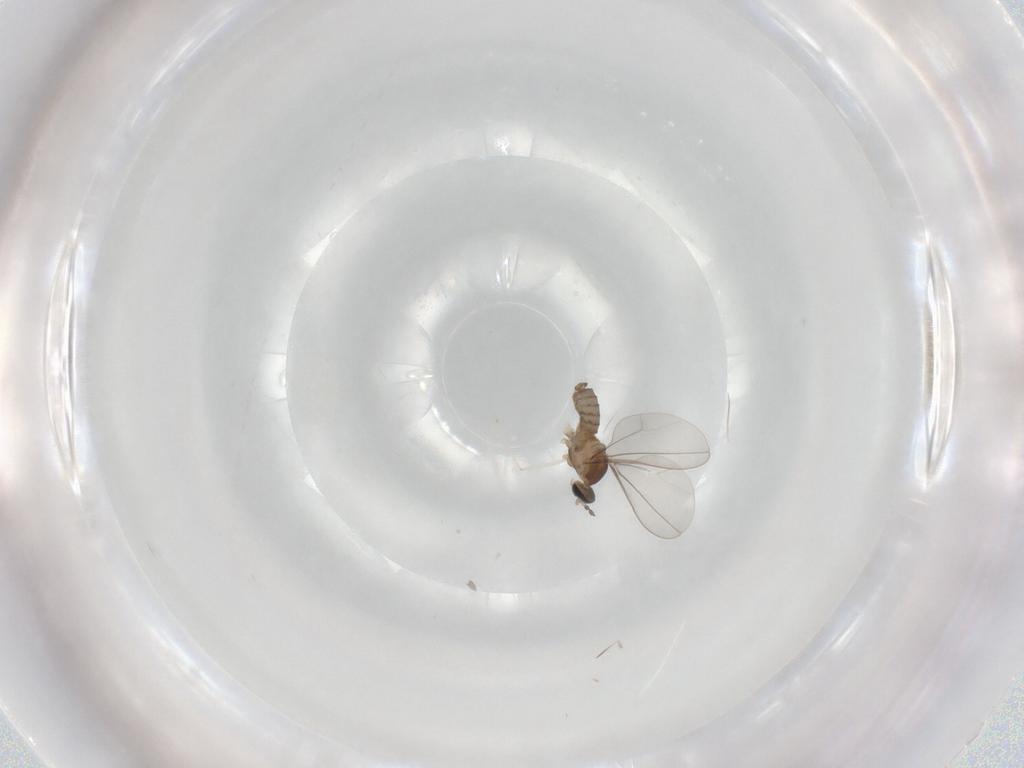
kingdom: Animalia
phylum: Arthropoda
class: Insecta
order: Diptera
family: Cecidomyiidae
